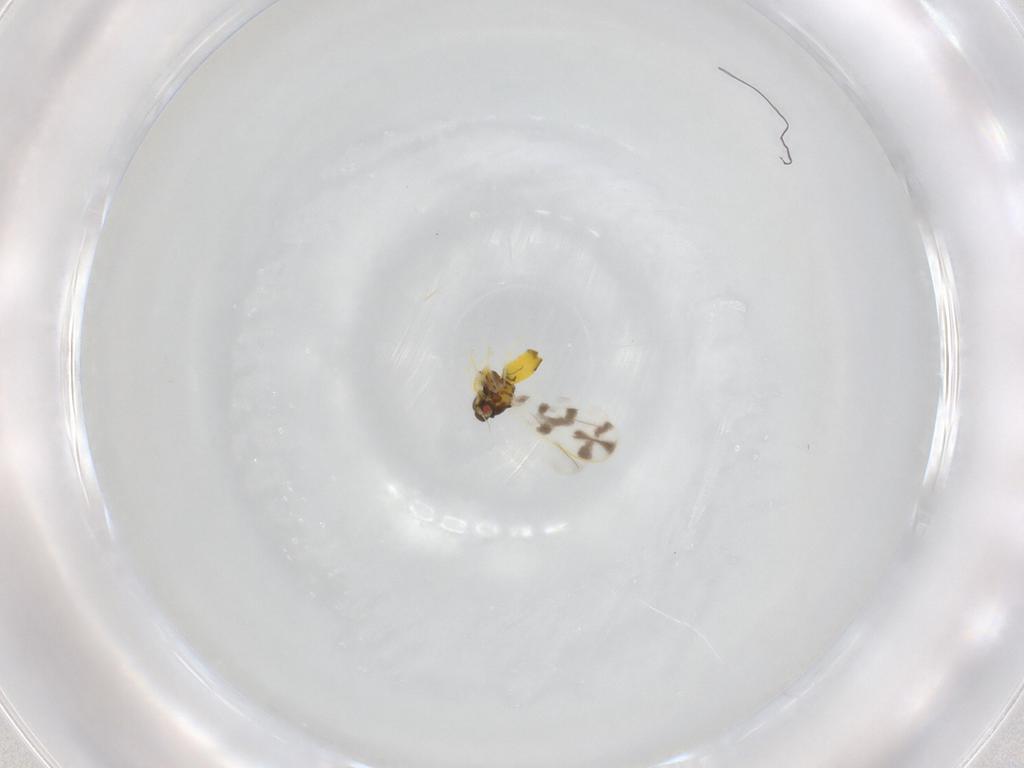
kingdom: Animalia
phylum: Arthropoda
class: Insecta
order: Hemiptera
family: Aleyrodidae
